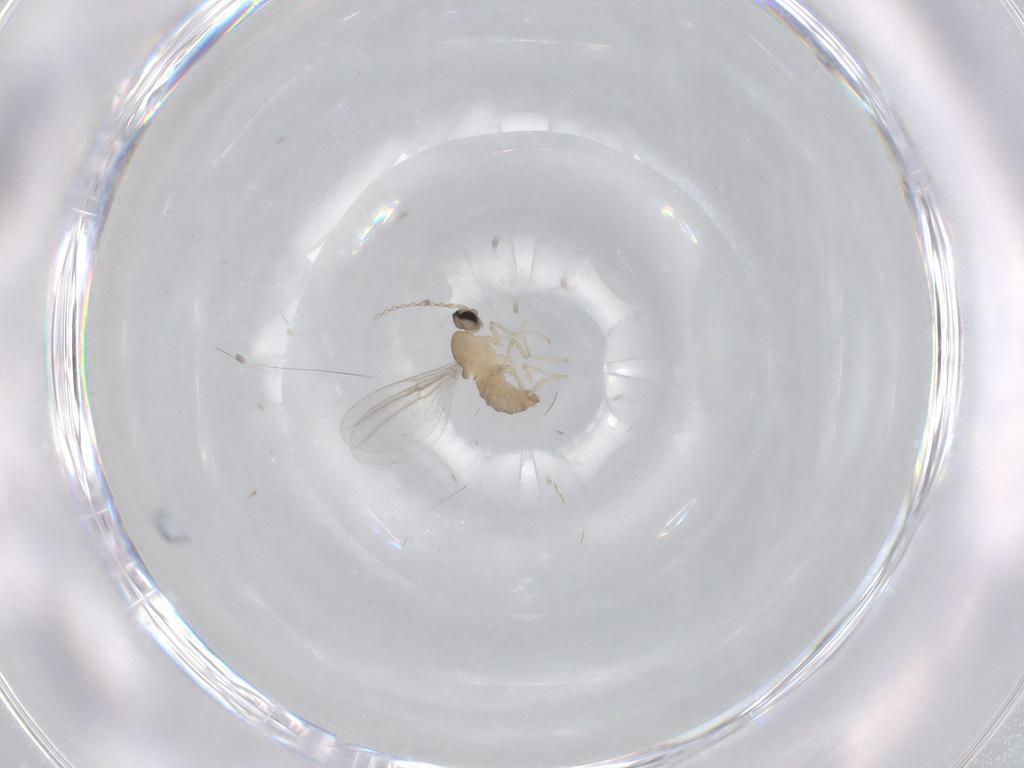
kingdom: Animalia
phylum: Arthropoda
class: Insecta
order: Diptera
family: Cecidomyiidae
